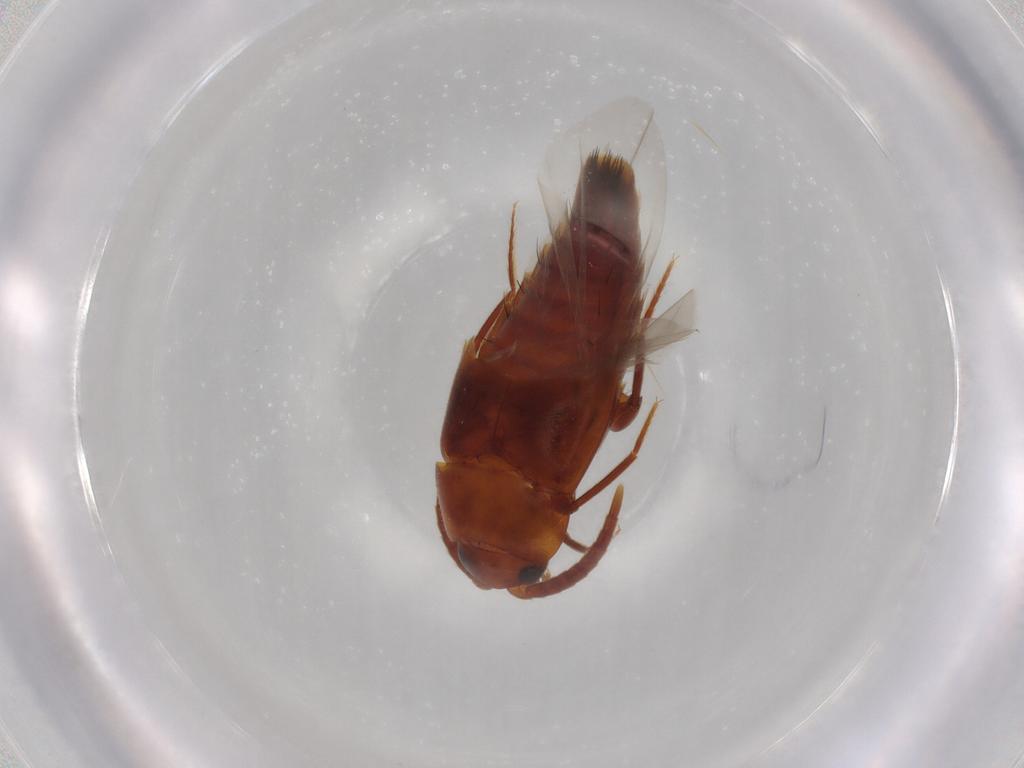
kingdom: Animalia
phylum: Arthropoda
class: Insecta
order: Coleoptera
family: Staphylinidae
